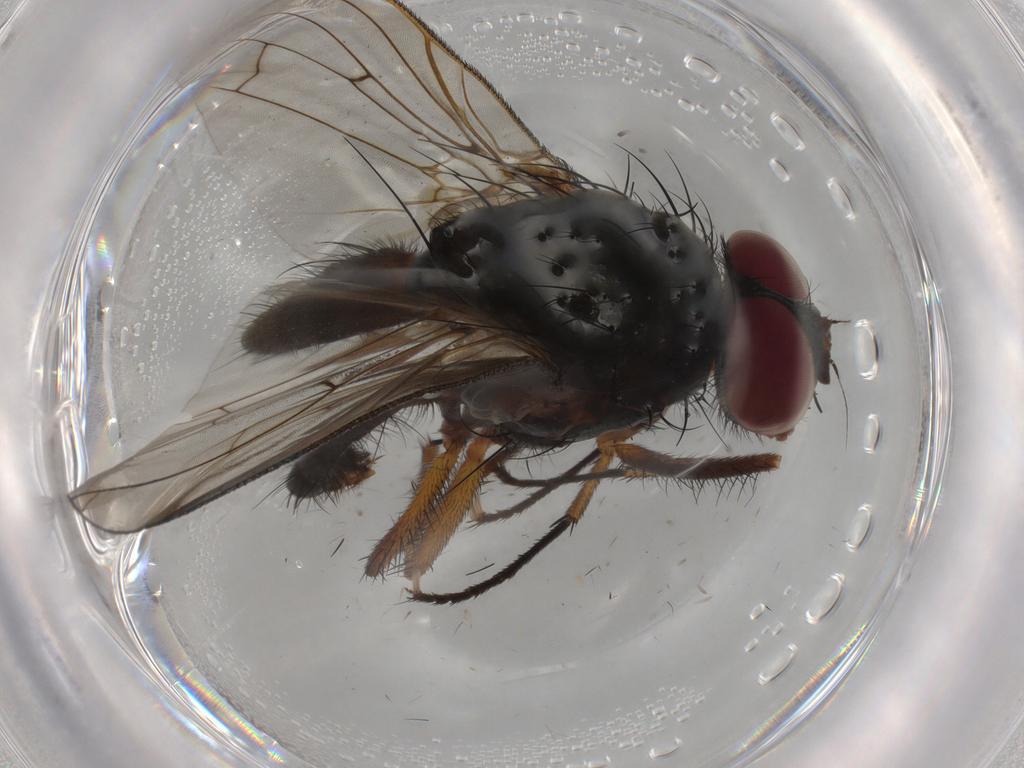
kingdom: Animalia
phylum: Arthropoda
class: Insecta
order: Diptera
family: Anthomyiidae
